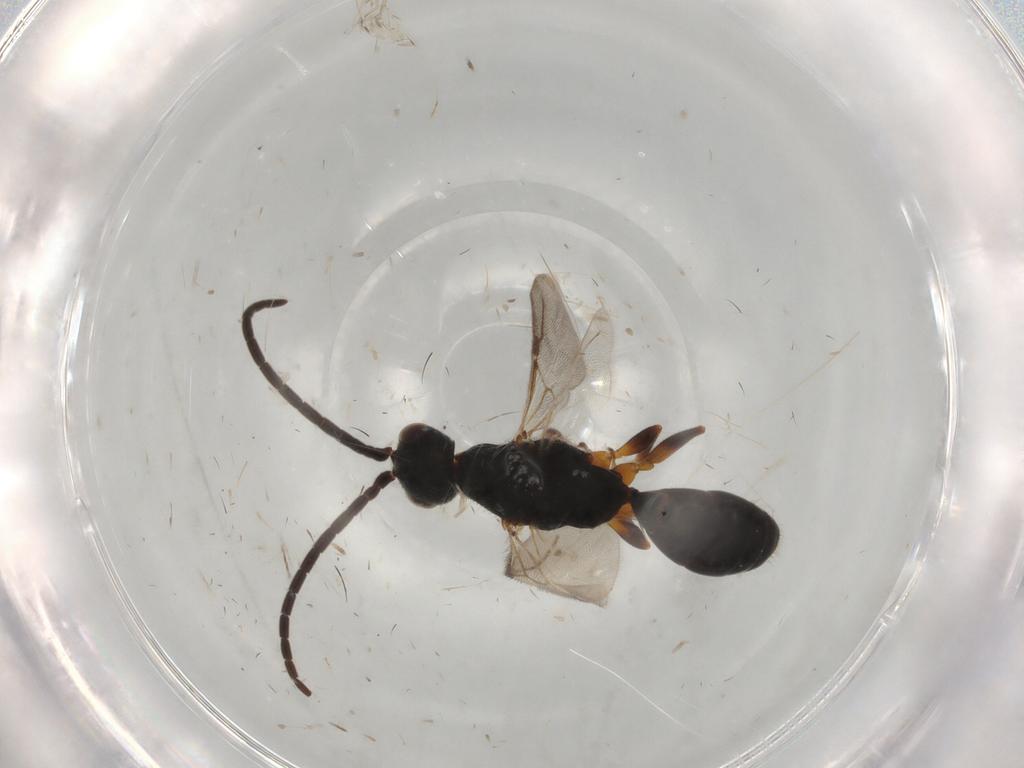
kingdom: Animalia
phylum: Arthropoda
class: Insecta
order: Hymenoptera
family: Bethylidae
